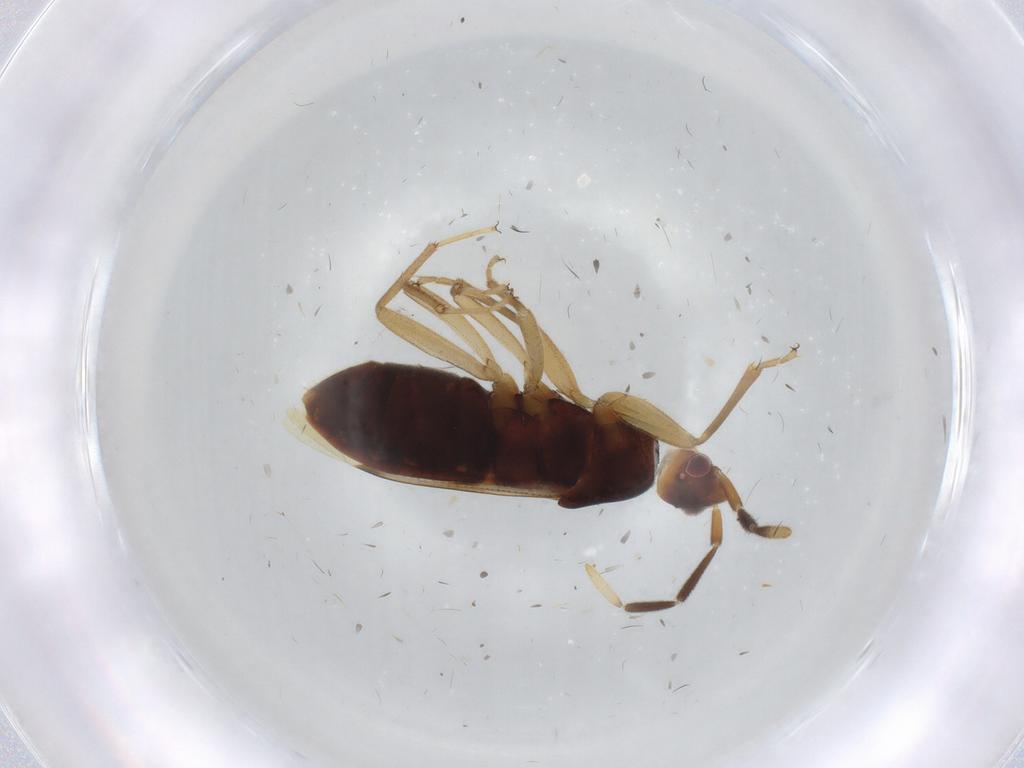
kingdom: Animalia
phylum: Arthropoda
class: Insecta
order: Hemiptera
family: Rhyparochromidae
